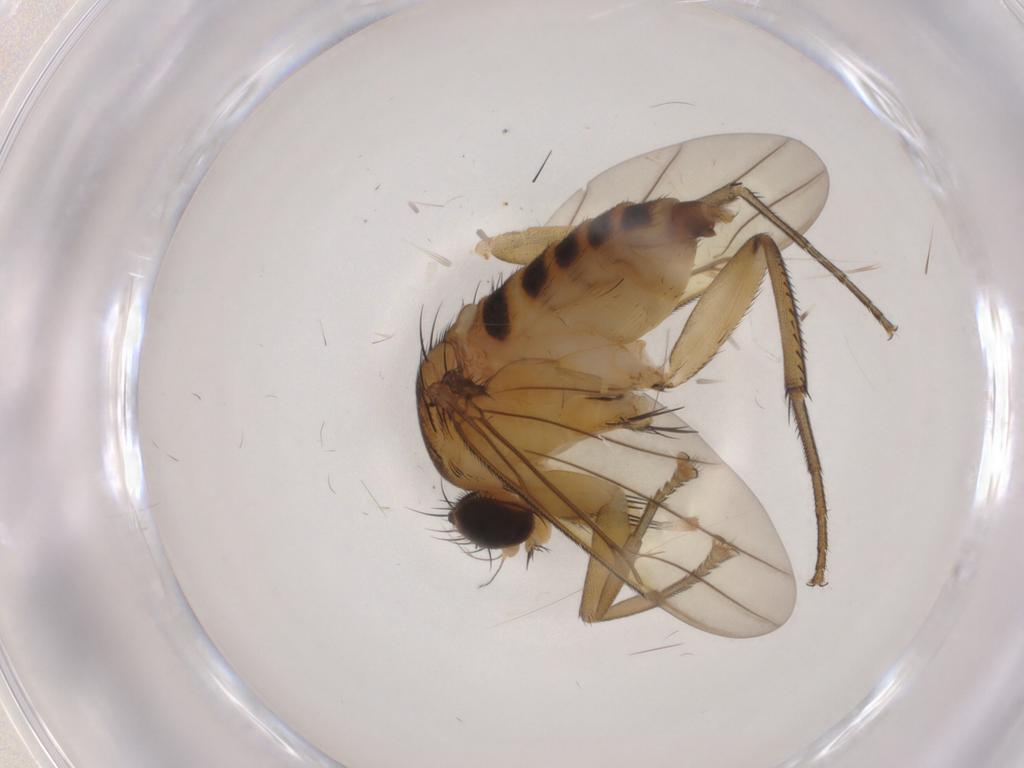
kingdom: Animalia
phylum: Arthropoda
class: Insecta
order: Diptera
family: Phoridae
